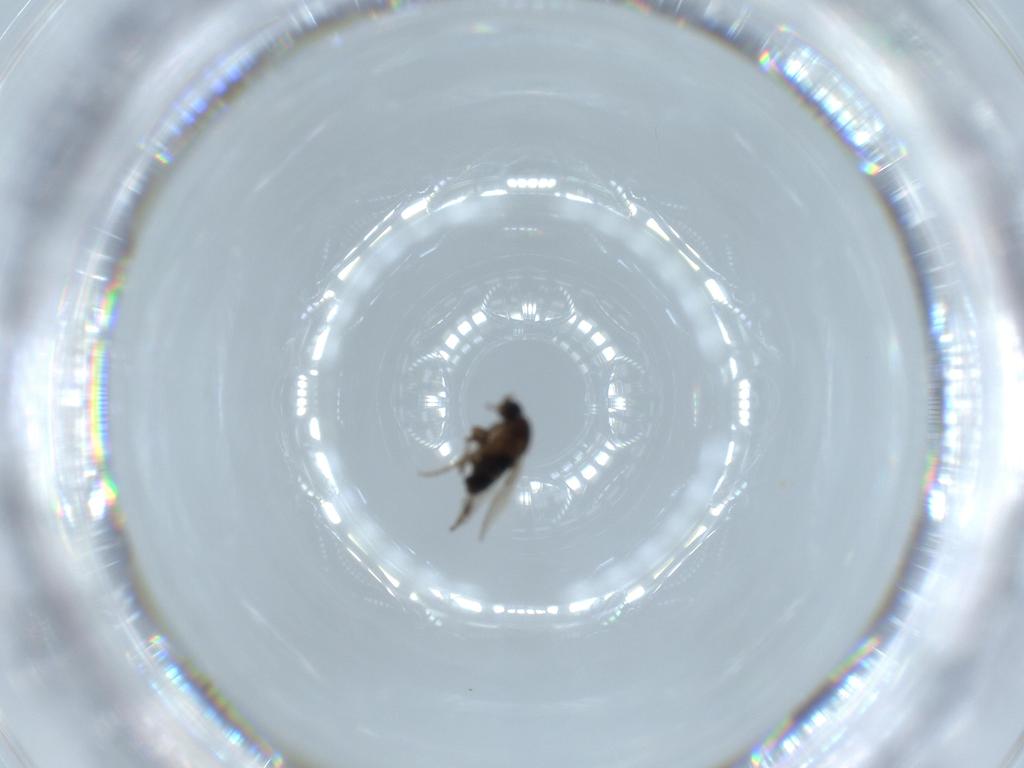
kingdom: Animalia
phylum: Arthropoda
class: Insecta
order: Diptera
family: Phoridae
